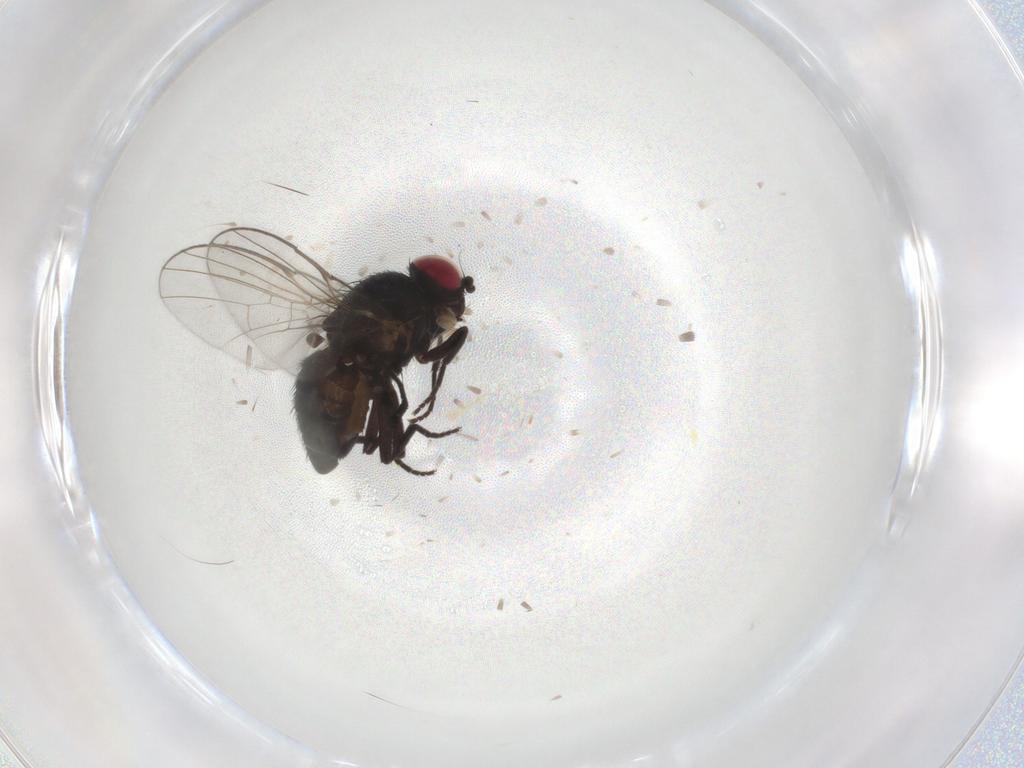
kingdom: Animalia
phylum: Arthropoda
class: Insecta
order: Diptera
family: Agromyzidae
